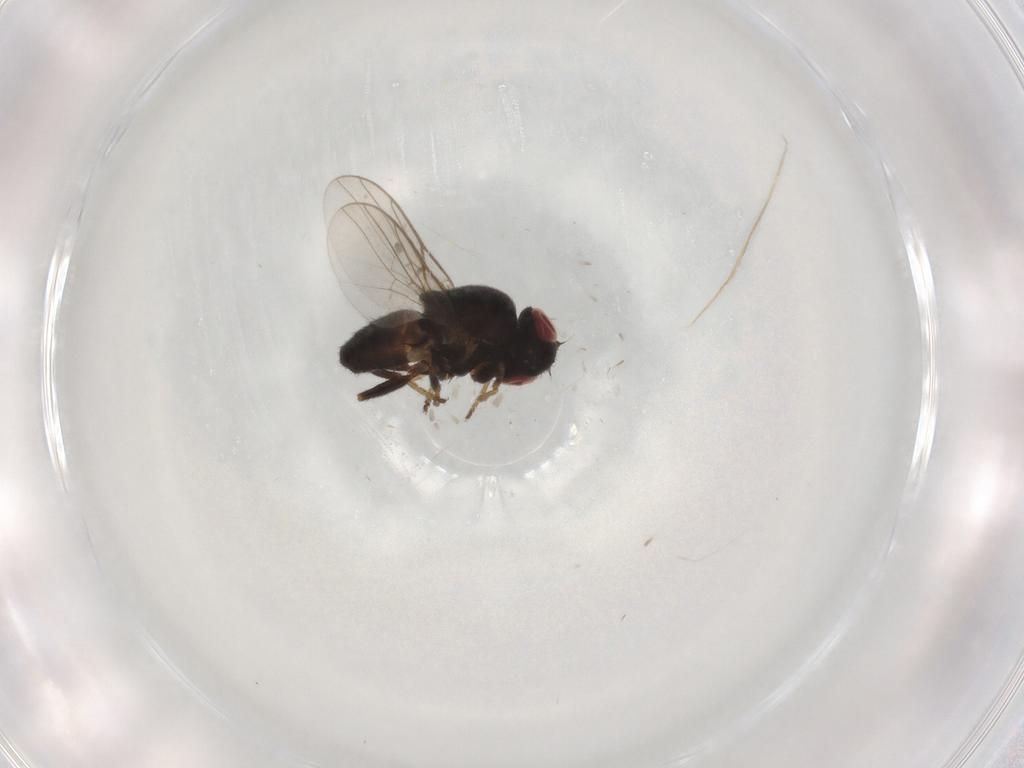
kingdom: Animalia
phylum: Arthropoda
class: Insecta
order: Diptera
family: Chloropidae
